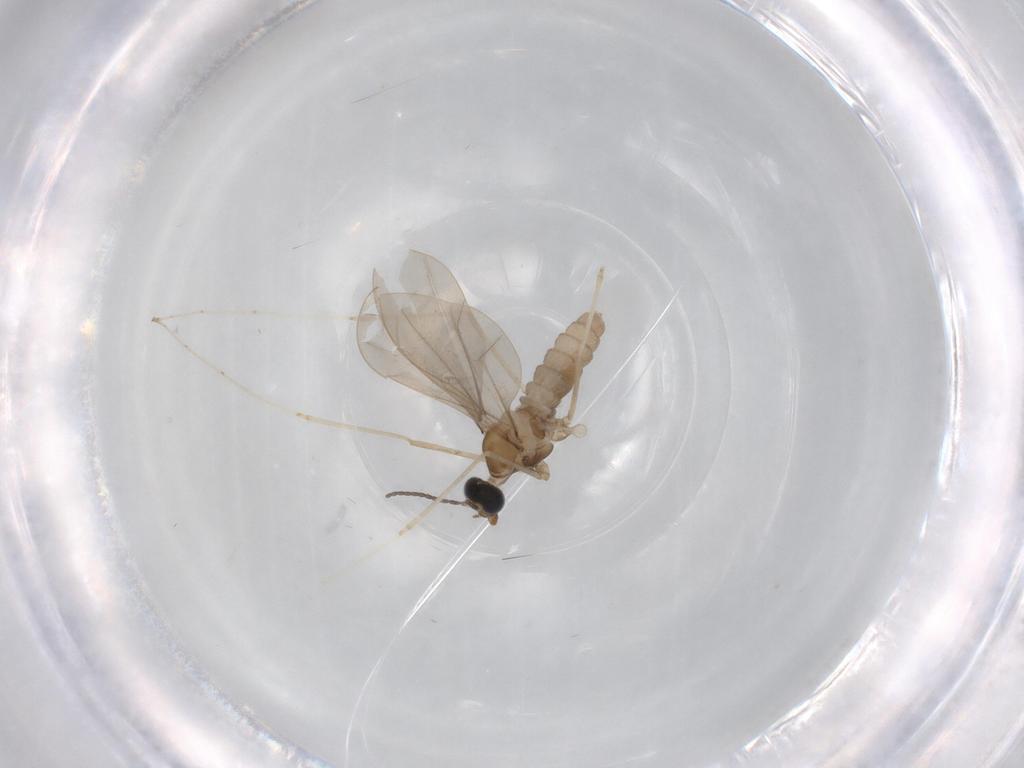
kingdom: Animalia
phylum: Arthropoda
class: Insecta
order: Diptera
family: Cecidomyiidae
